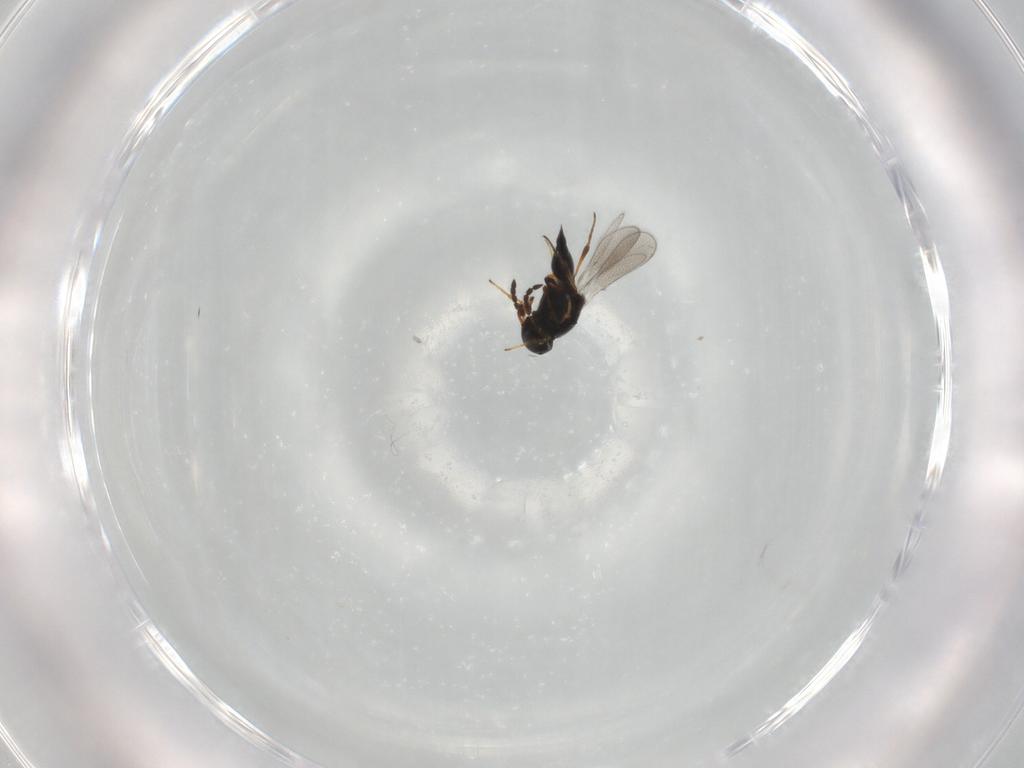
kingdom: Animalia
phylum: Arthropoda
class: Insecta
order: Hymenoptera
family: Platygastridae
